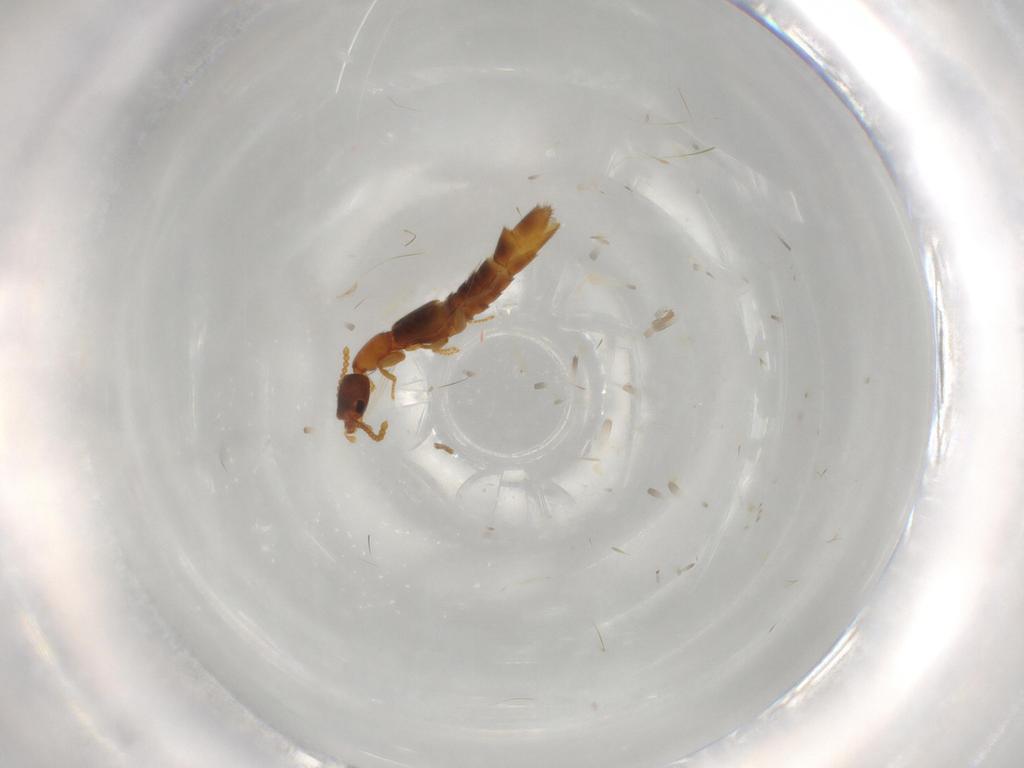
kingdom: Animalia
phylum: Arthropoda
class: Insecta
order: Coleoptera
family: Staphylinidae
